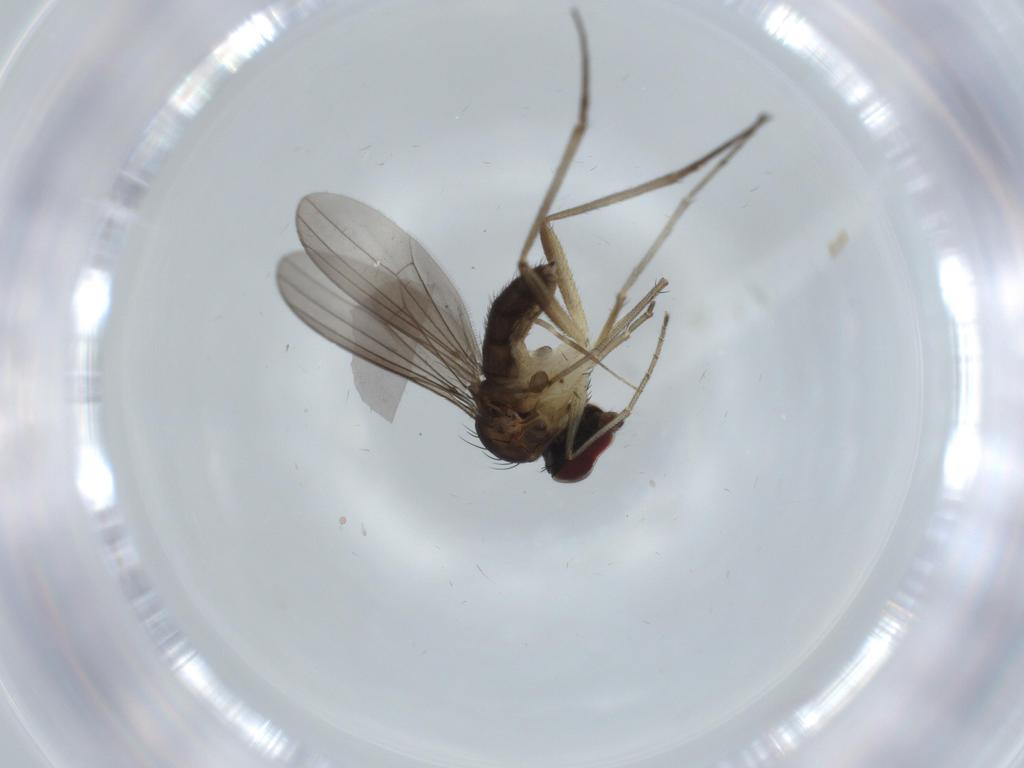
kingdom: Animalia
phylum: Arthropoda
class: Insecta
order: Diptera
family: Dolichopodidae
